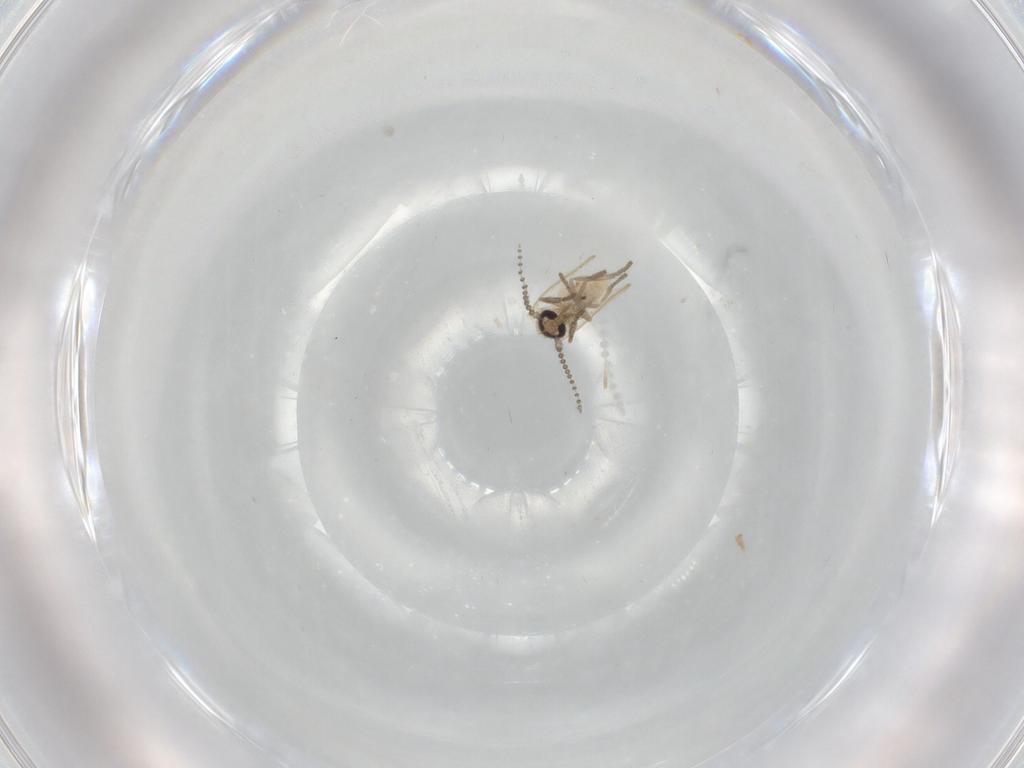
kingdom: Animalia
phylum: Arthropoda
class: Insecta
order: Diptera
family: Psychodidae
